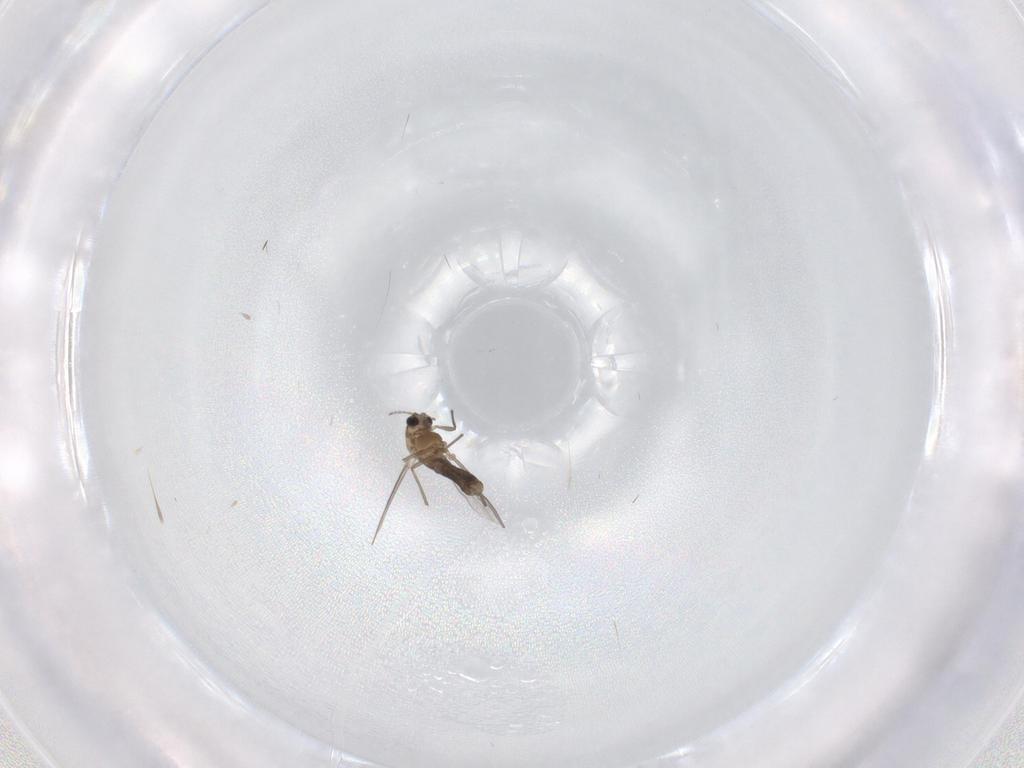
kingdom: Animalia
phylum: Arthropoda
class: Insecta
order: Diptera
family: Chironomidae
